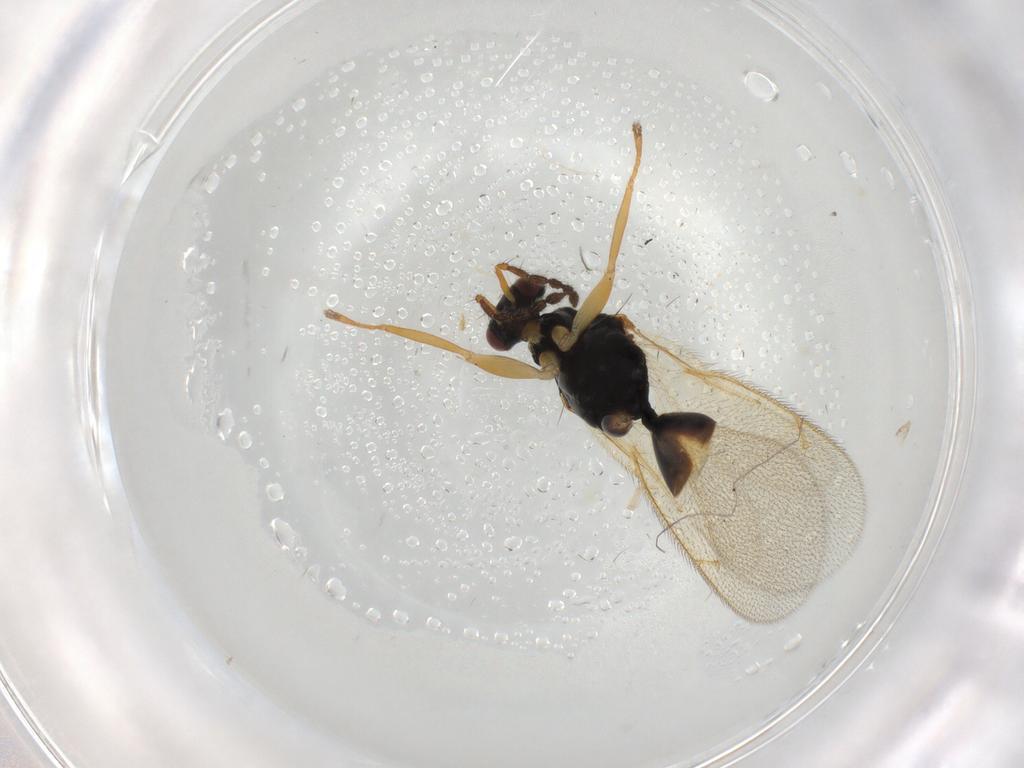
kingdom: Animalia
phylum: Arthropoda
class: Insecta
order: Hymenoptera
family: Eulophidae
